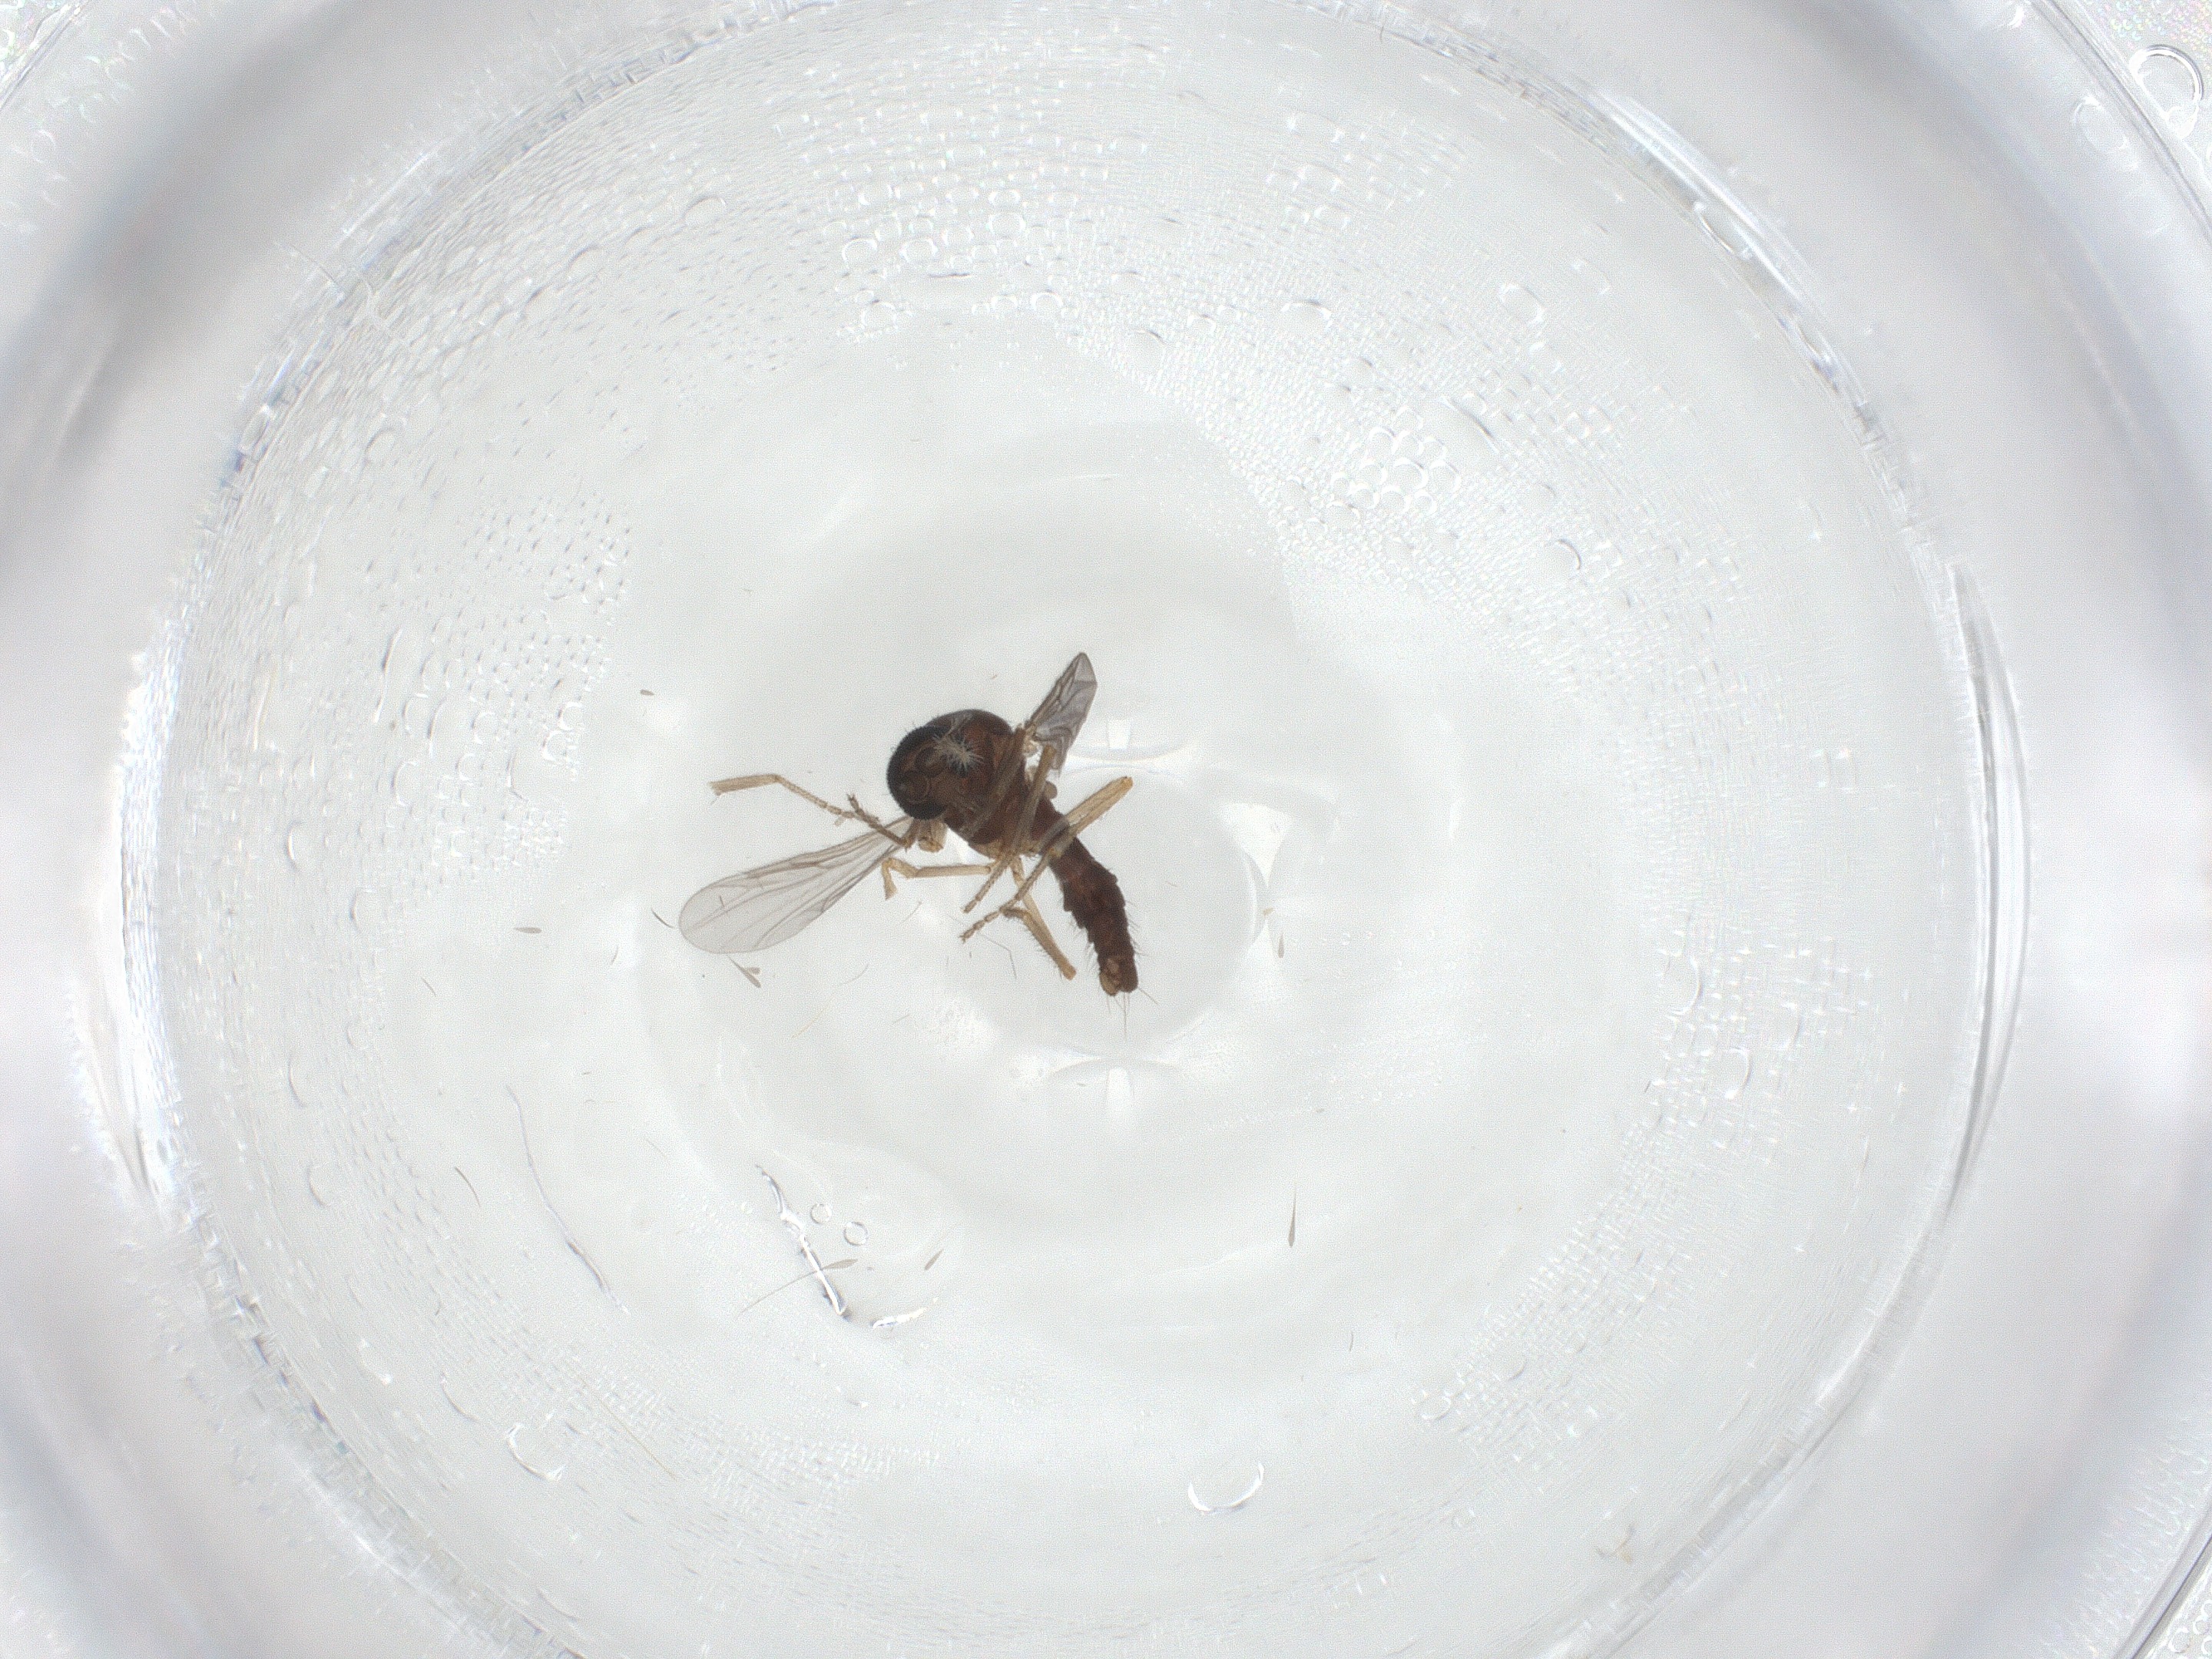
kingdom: Animalia
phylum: Arthropoda
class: Insecta
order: Diptera
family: Ceratopogonidae
